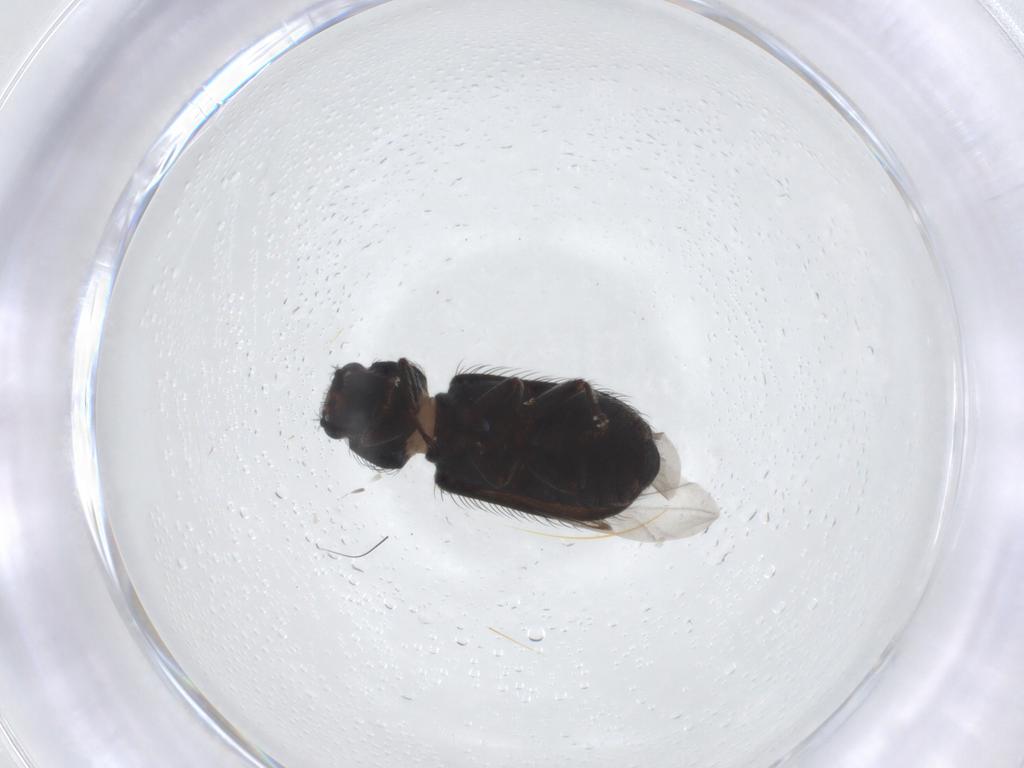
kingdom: Animalia
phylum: Arthropoda
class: Insecta
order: Coleoptera
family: Melyridae
